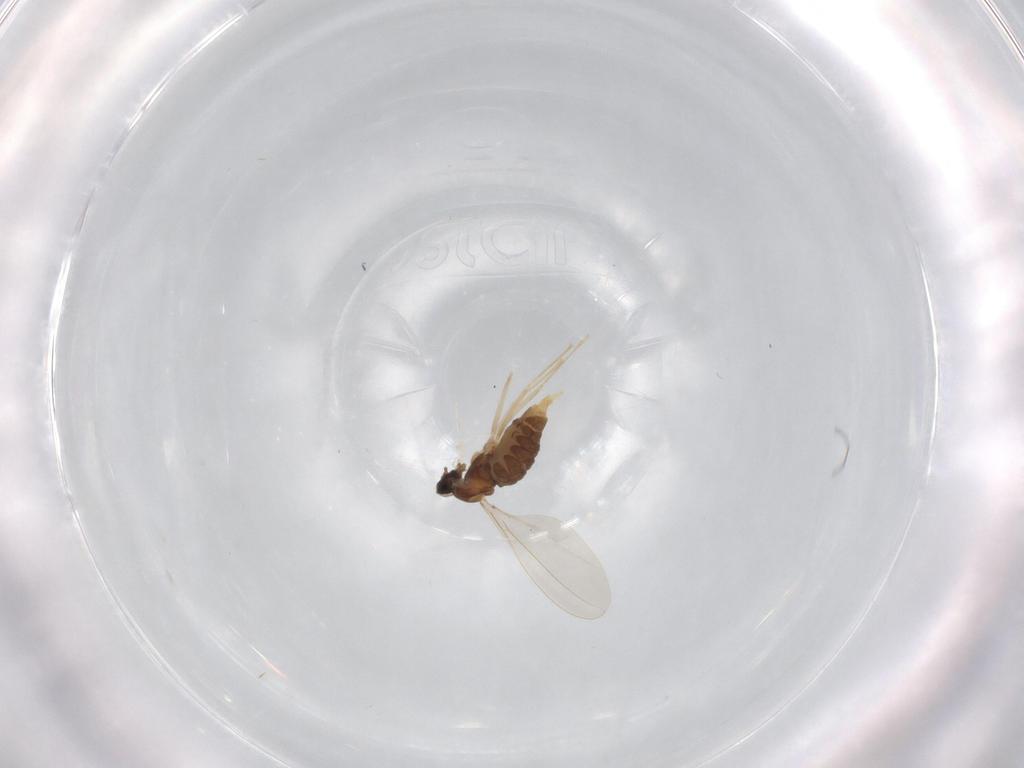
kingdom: Animalia
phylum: Arthropoda
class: Insecta
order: Diptera
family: Cecidomyiidae
